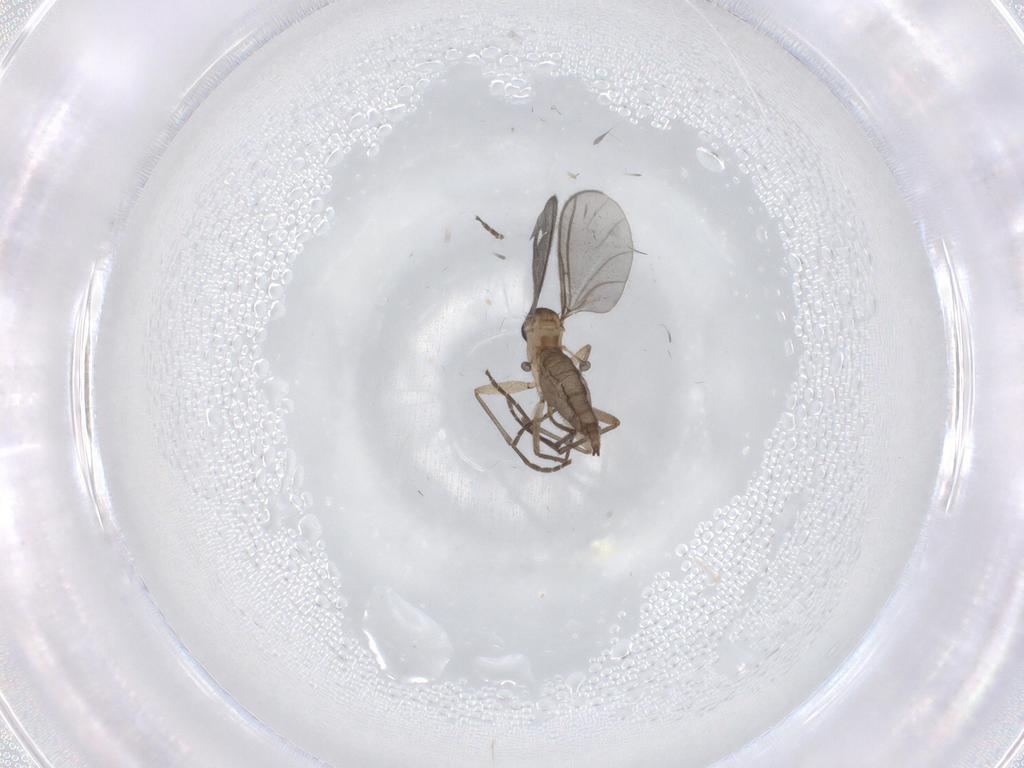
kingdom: Animalia
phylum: Arthropoda
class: Insecta
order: Diptera
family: Sciaridae
